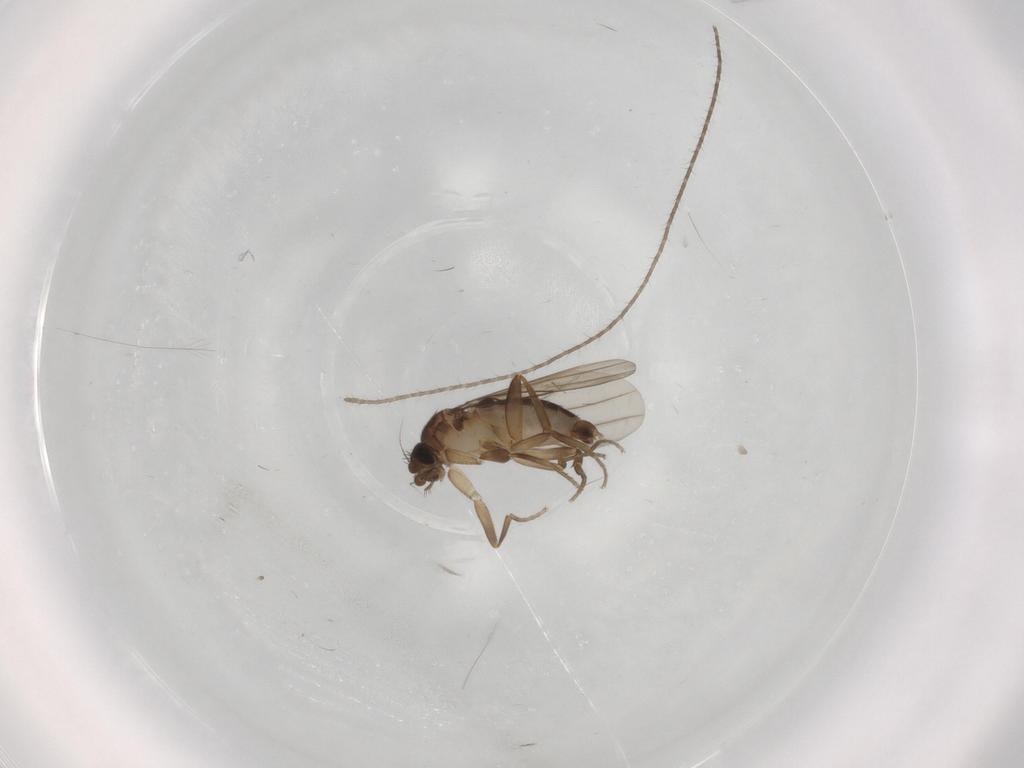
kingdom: Animalia
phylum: Arthropoda
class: Insecta
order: Diptera
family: Phoridae
